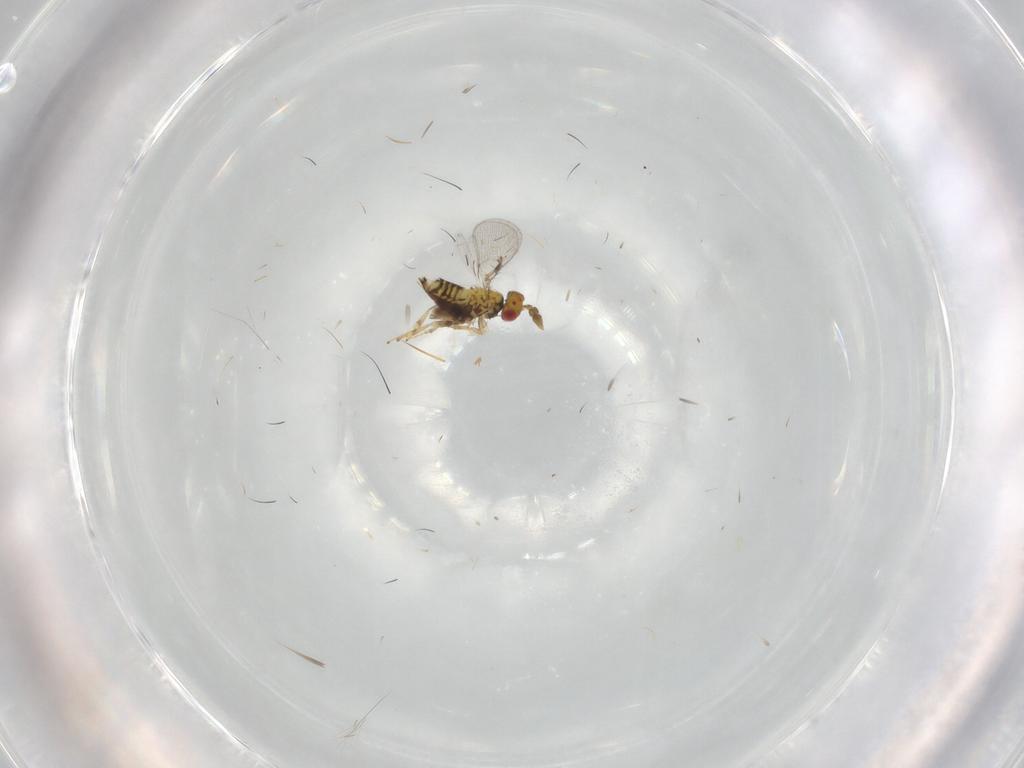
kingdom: Animalia
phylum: Arthropoda
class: Insecta
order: Hymenoptera
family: Trichogrammatidae
